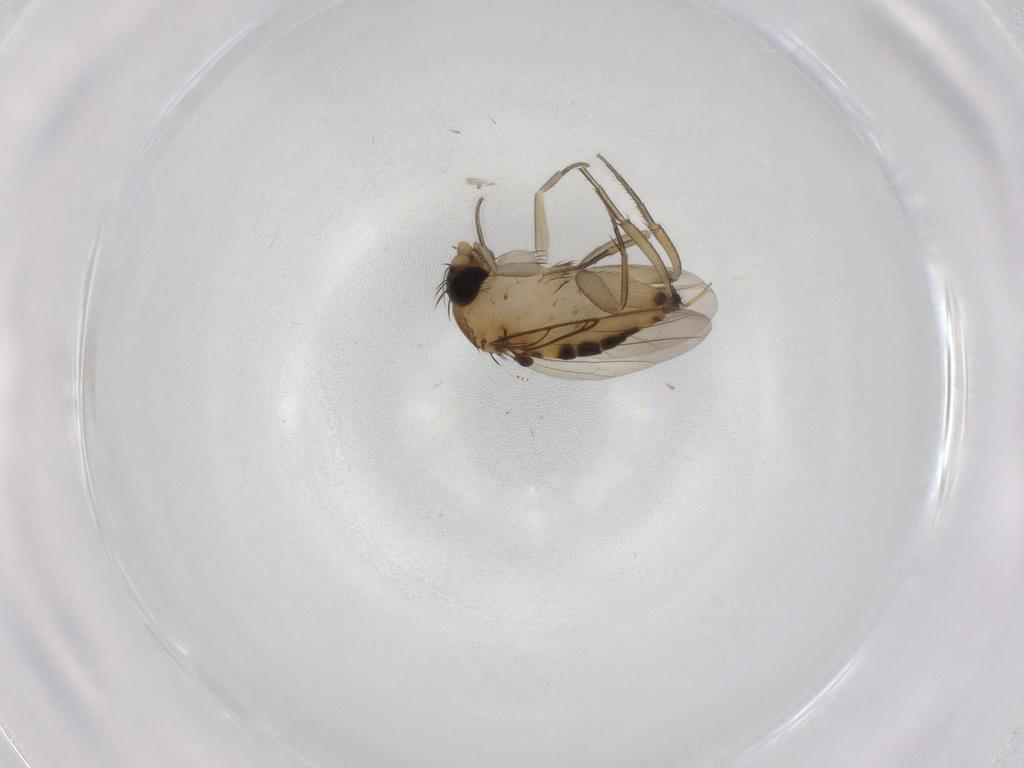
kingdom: Animalia
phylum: Arthropoda
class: Insecta
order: Diptera
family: Phoridae
